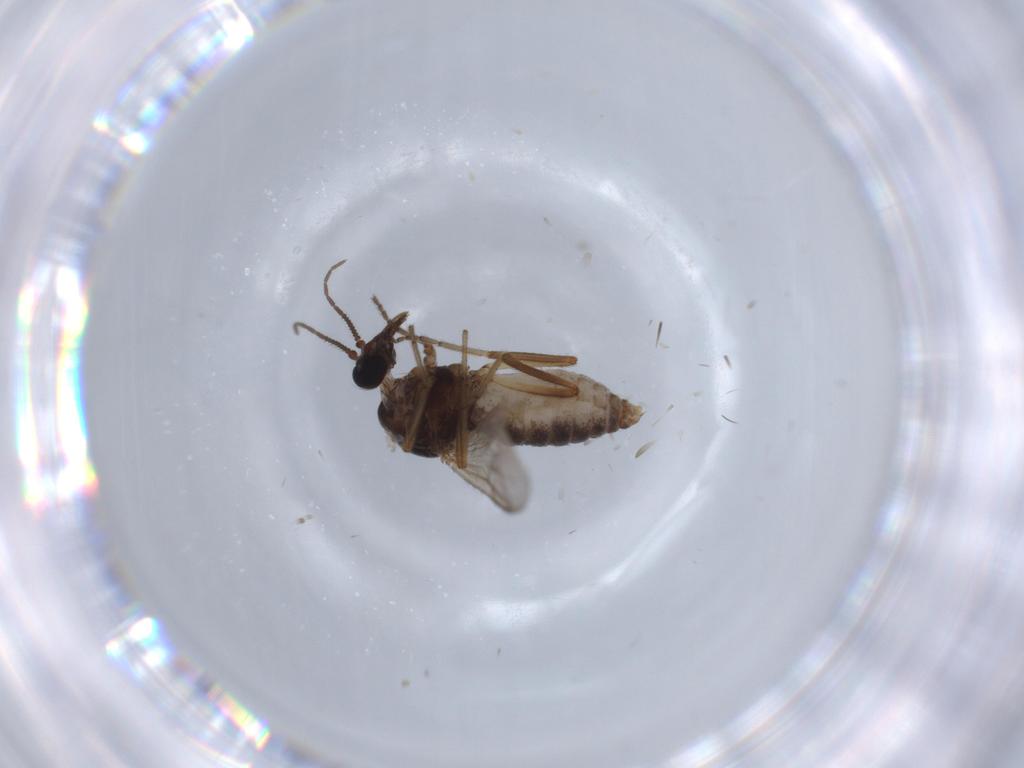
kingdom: Animalia
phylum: Arthropoda
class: Insecta
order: Diptera
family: Ceratopogonidae
